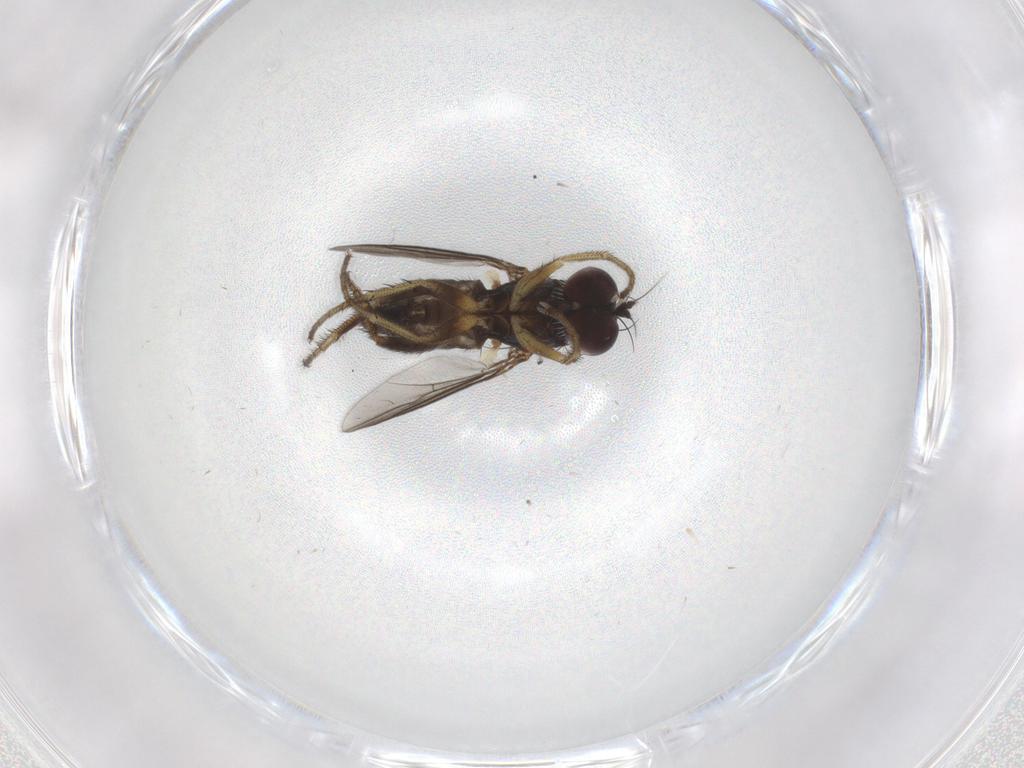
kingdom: Animalia
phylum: Arthropoda
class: Insecta
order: Diptera
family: Dolichopodidae
